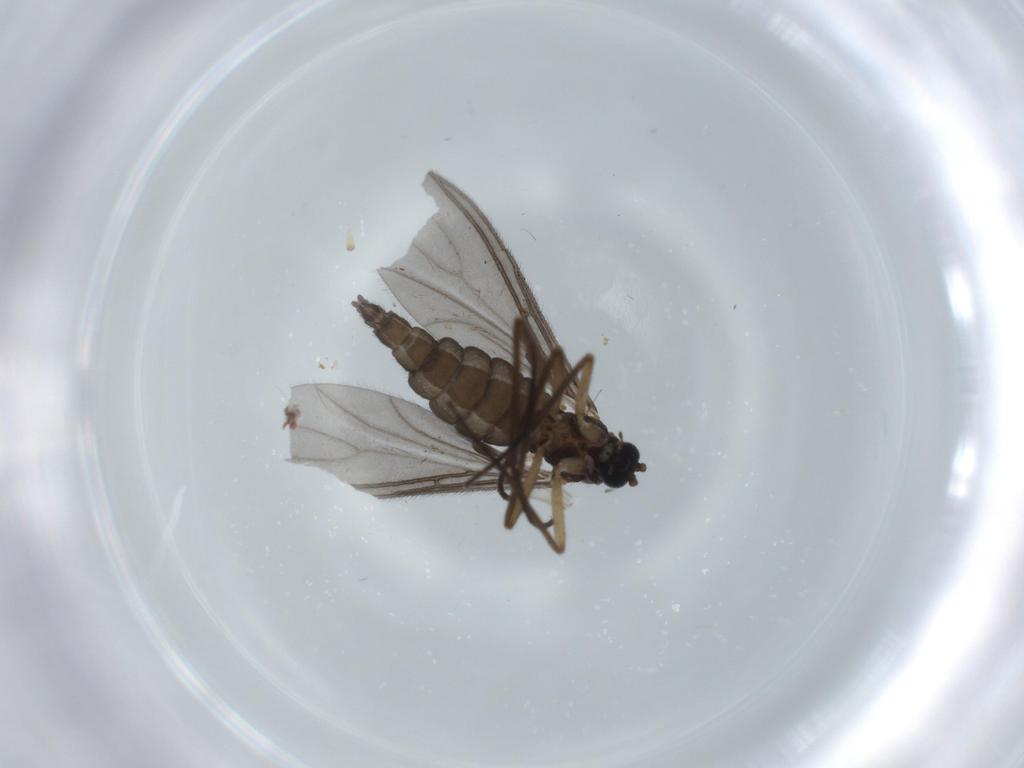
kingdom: Animalia
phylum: Arthropoda
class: Insecta
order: Diptera
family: Sciaridae
